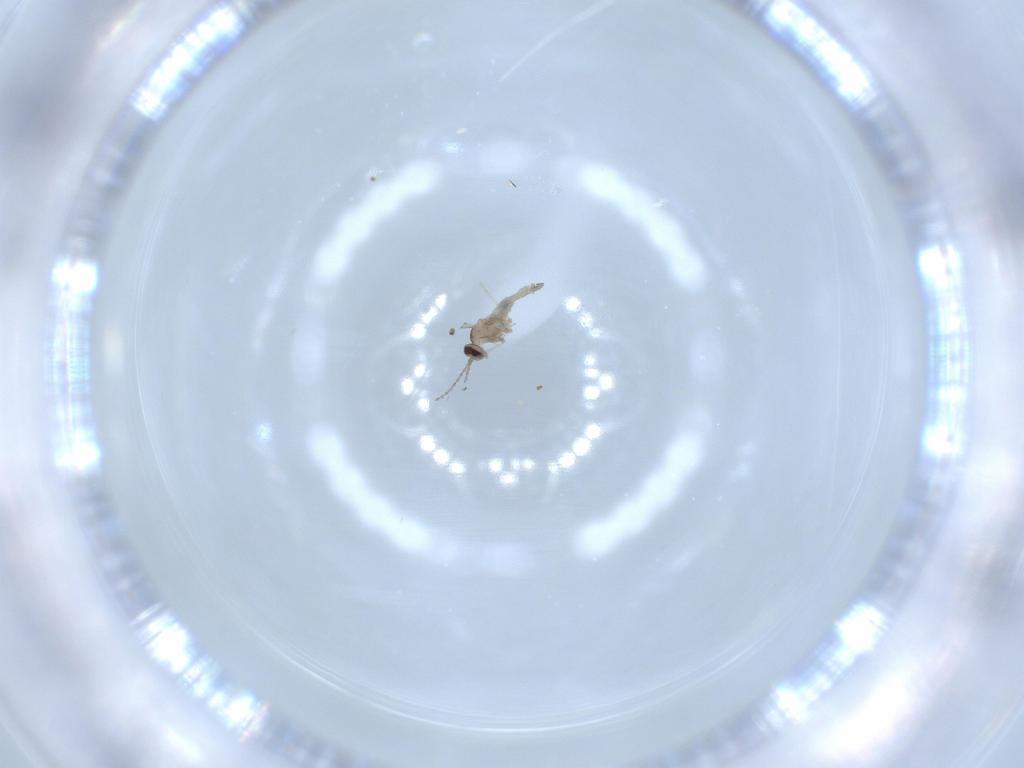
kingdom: Animalia
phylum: Arthropoda
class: Insecta
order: Diptera
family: Cecidomyiidae
